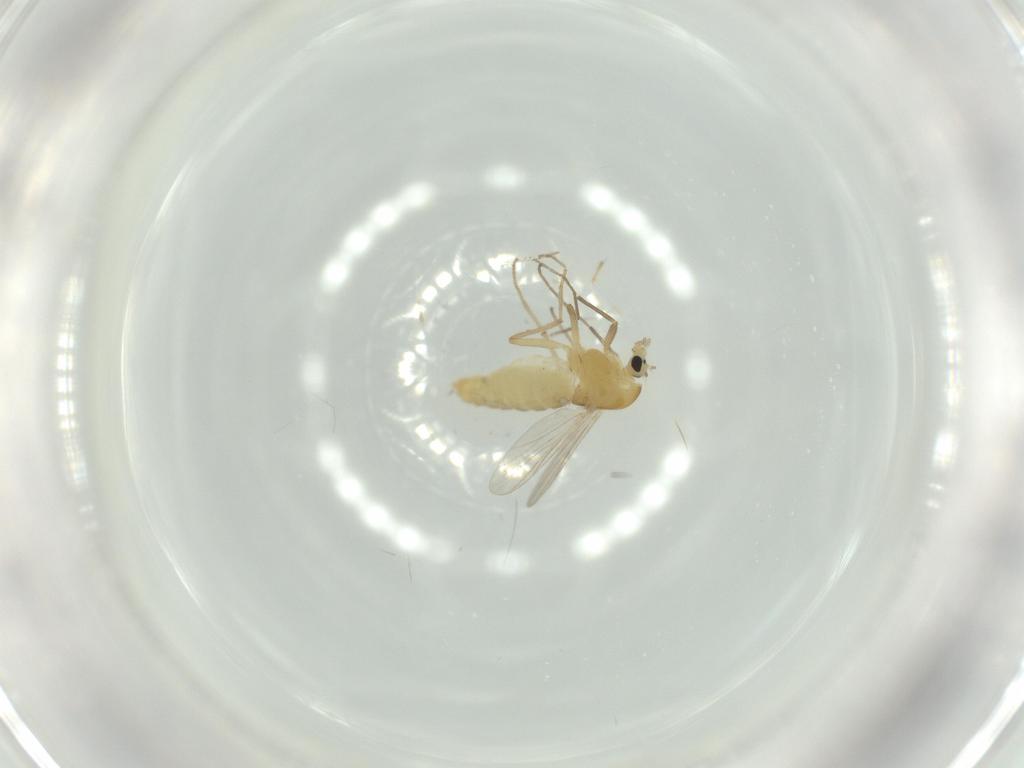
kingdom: Animalia
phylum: Arthropoda
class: Insecta
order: Diptera
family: Chironomidae
